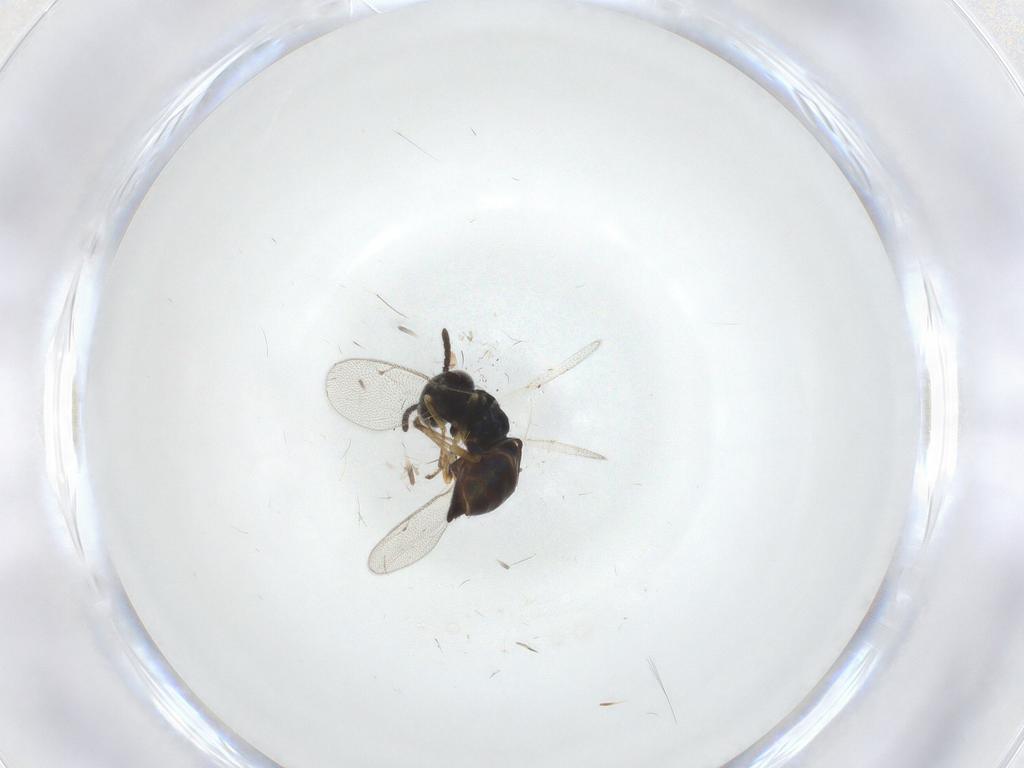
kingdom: Animalia
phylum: Arthropoda
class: Insecta
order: Hymenoptera
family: Pteromalidae
